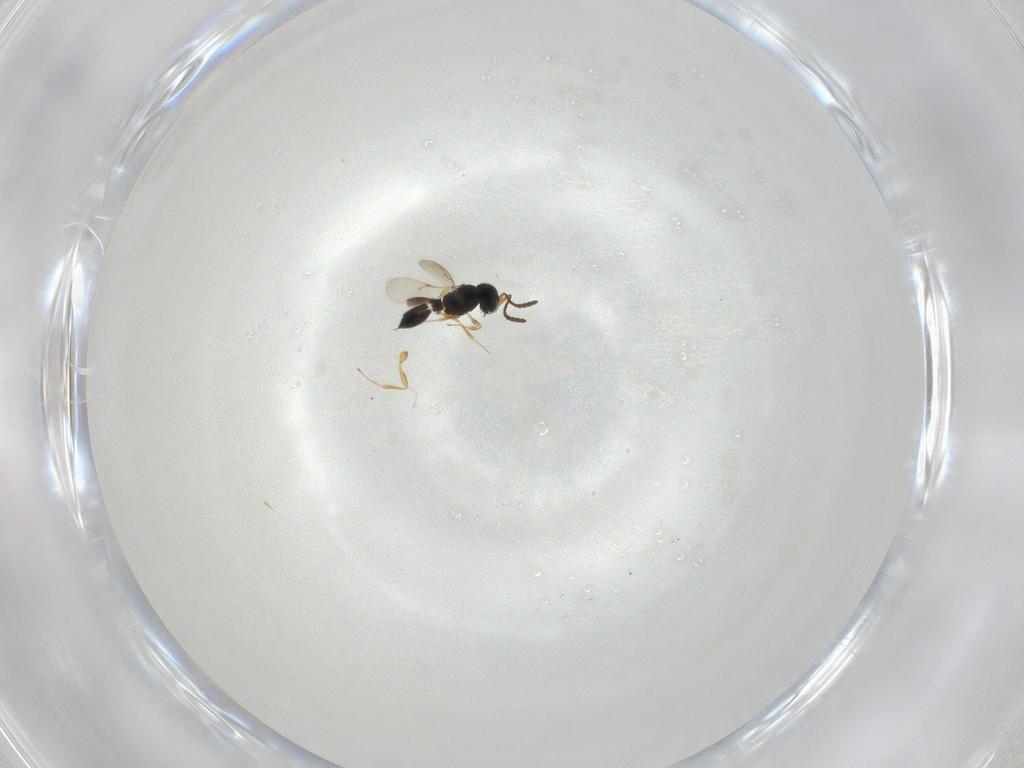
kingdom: Animalia
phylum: Arthropoda
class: Insecta
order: Hymenoptera
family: Scelionidae
